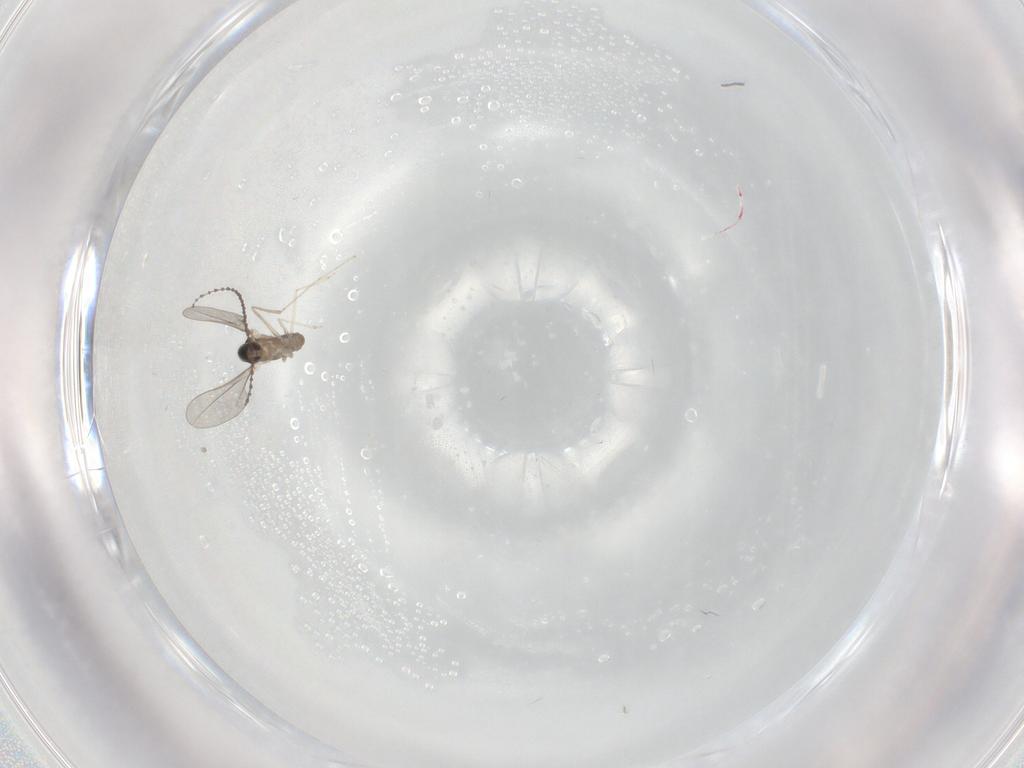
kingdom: Animalia
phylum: Arthropoda
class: Insecta
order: Diptera
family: Cecidomyiidae
